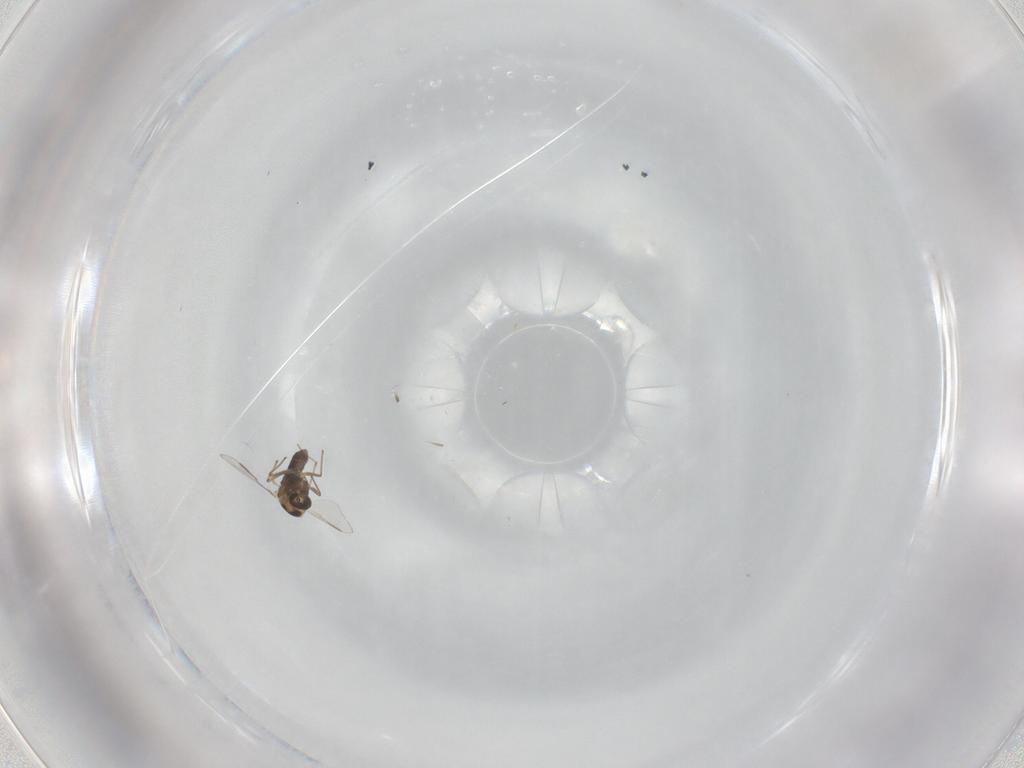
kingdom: Animalia
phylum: Arthropoda
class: Insecta
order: Diptera
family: Chironomidae
